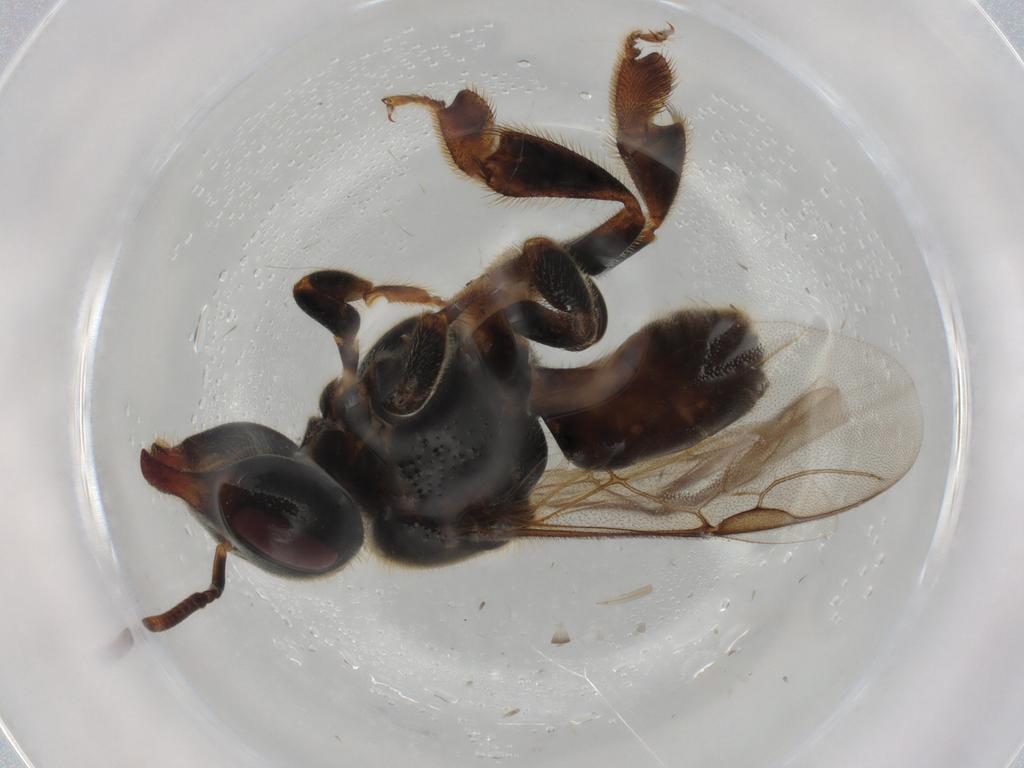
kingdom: Animalia
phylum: Arthropoda
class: Insecta
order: Hymenoptera
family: Apidae
